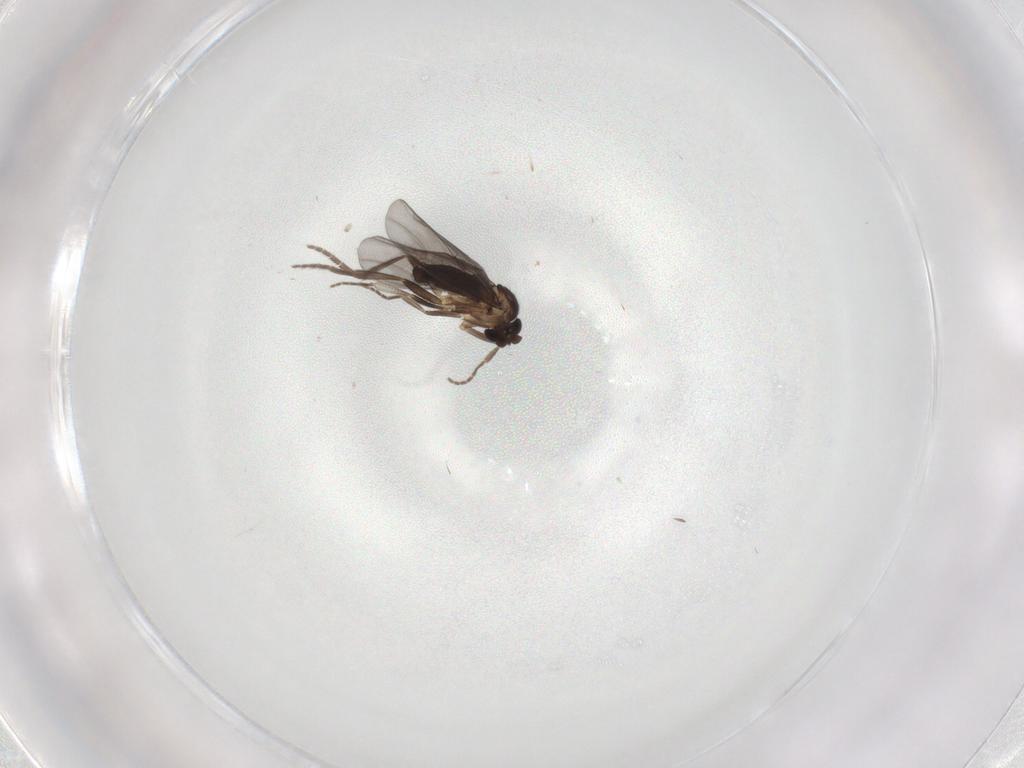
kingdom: Animalia
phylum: Arthropoda
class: Insecta
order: Diptera
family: Phoridae
